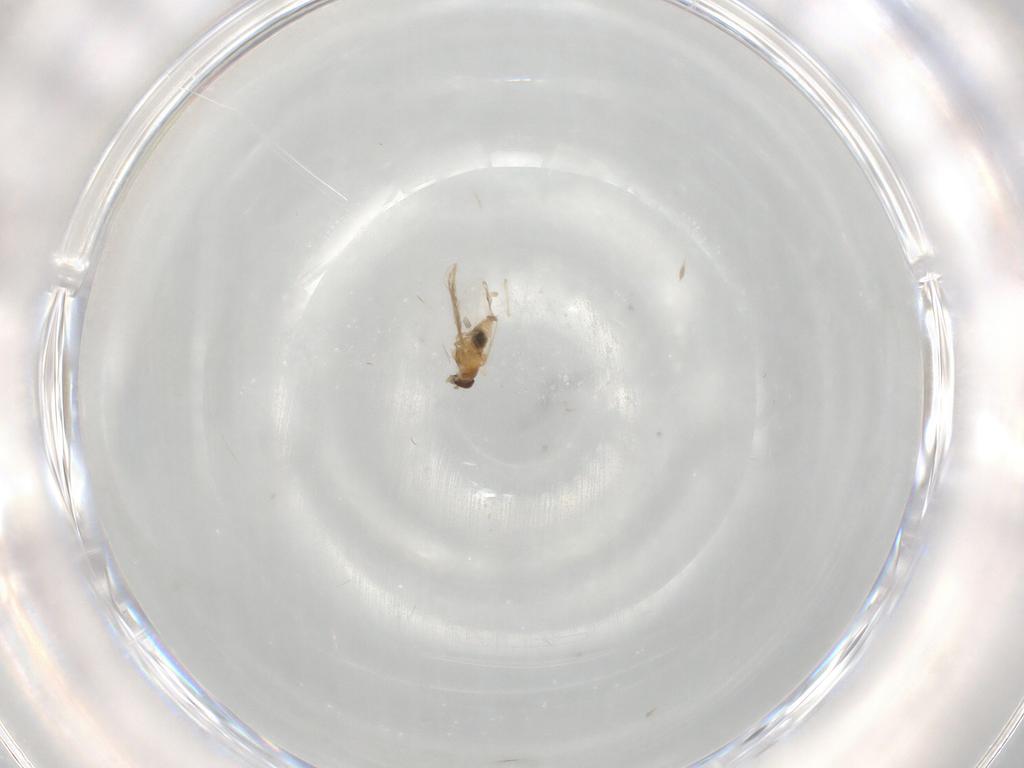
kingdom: Animalia
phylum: Arthropoda
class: Insecta
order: Diptera
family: Cecidomyiidae
